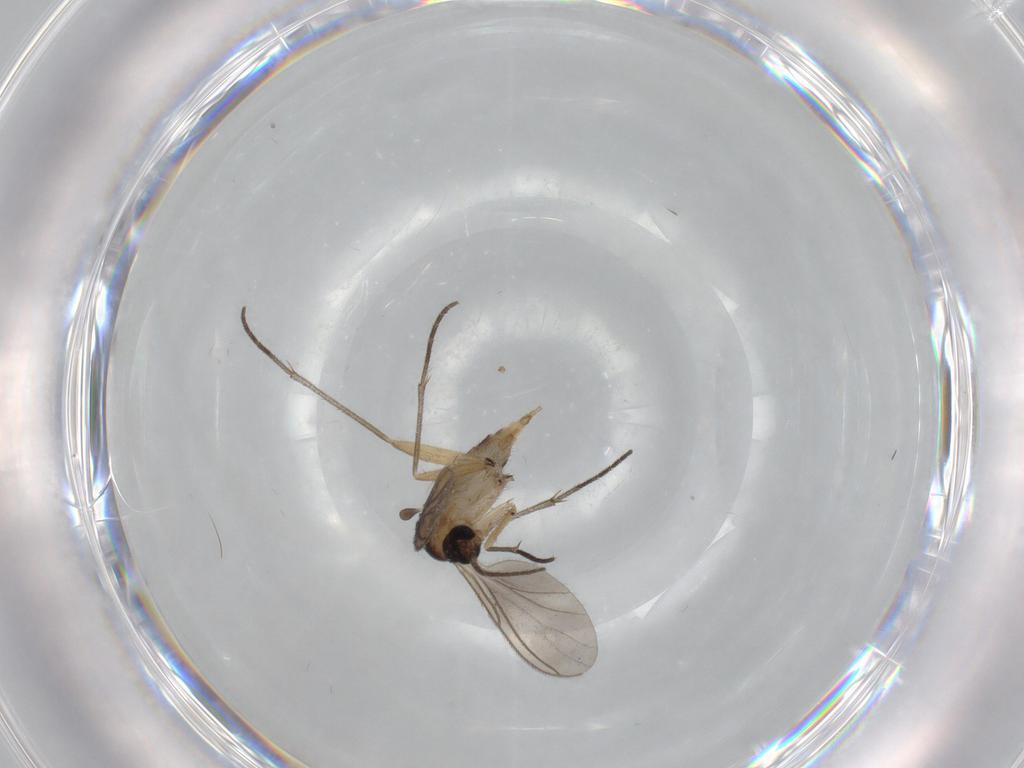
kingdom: Animalia
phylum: Arthropoda
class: Insecta
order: Diptera
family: Sciaridae
